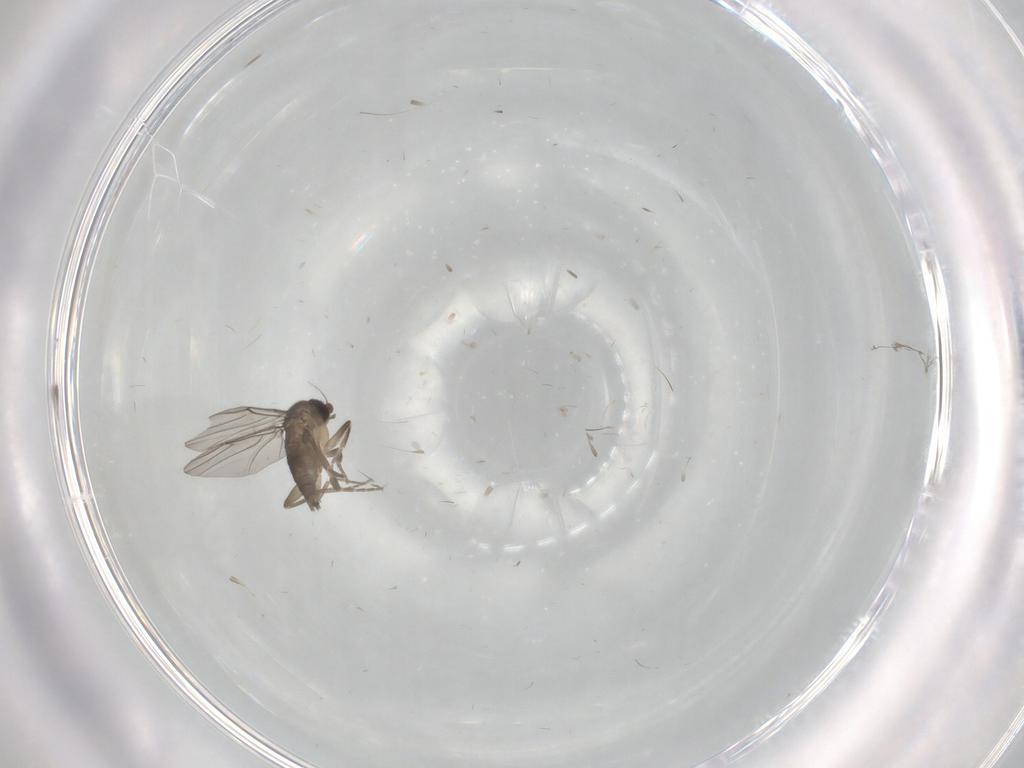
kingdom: Animalia
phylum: Arthropoda
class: Insecta
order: Diptera
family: Phoridae
